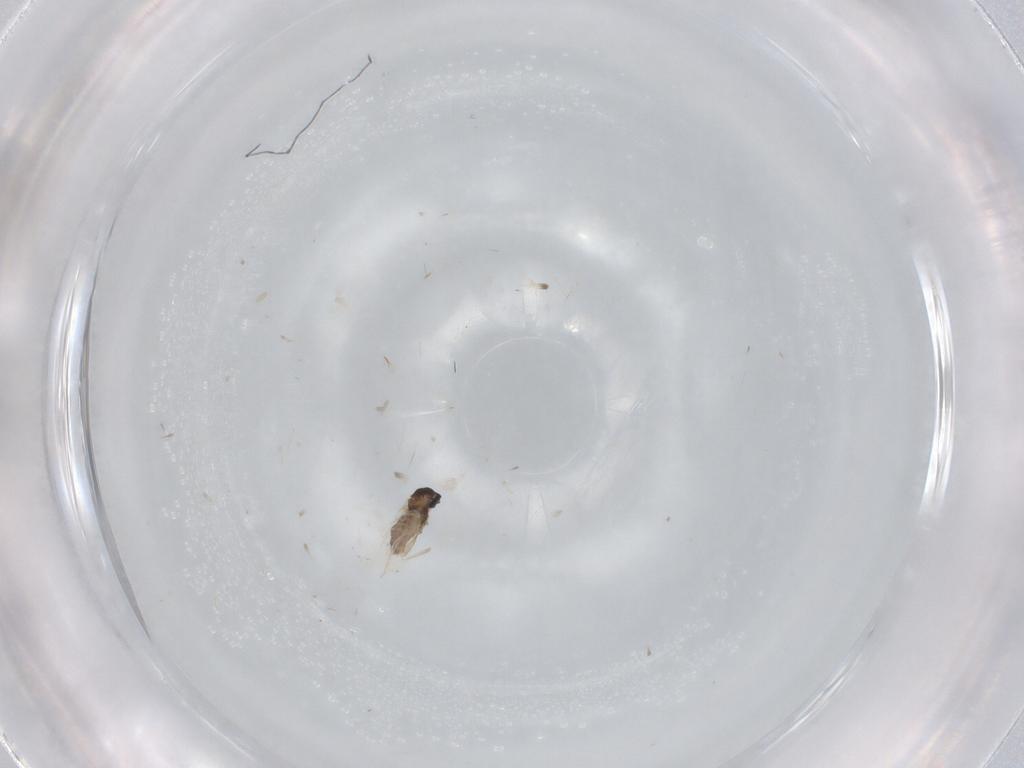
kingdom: Animalia
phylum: Arthropoda
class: Insecta
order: Diptera
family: Cecidomyiidae
